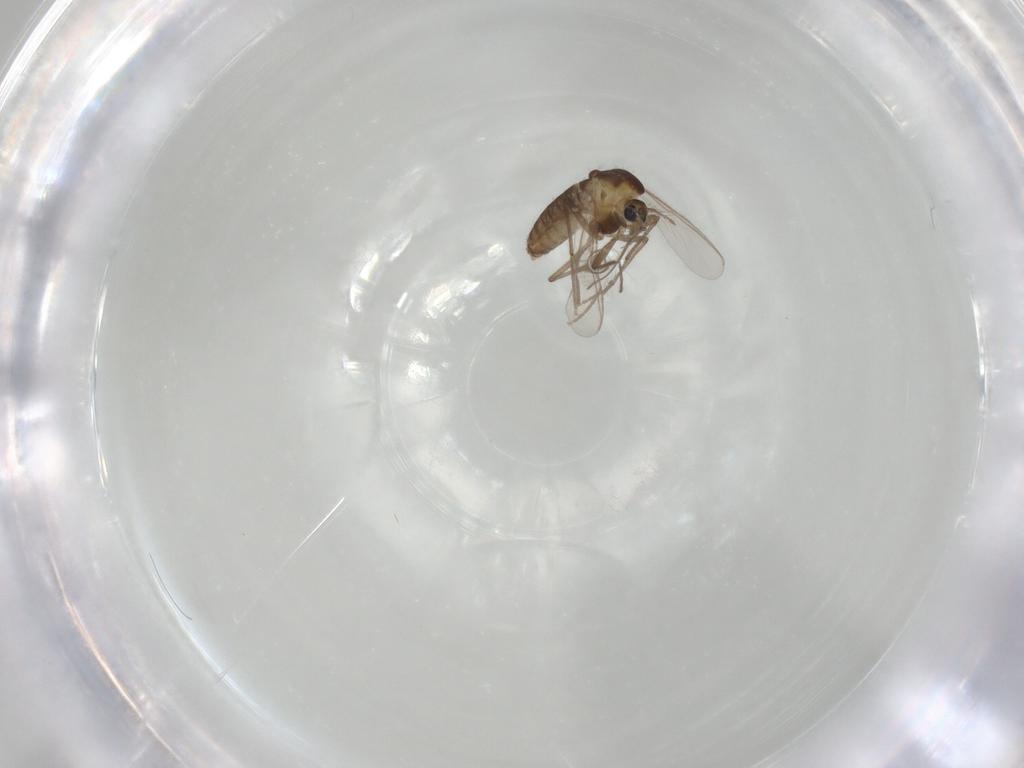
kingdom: Animalia
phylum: Arthropoda
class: Insecta
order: Diptera
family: Chironomidae
